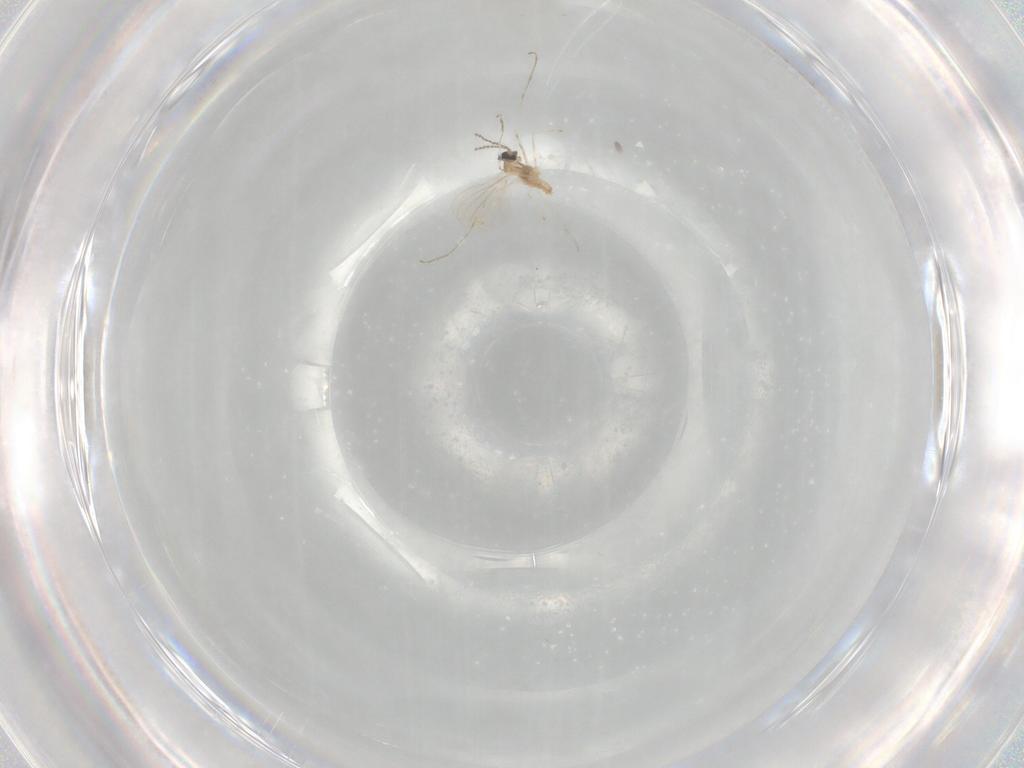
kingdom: Animalia
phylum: Arthropoda
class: Insecta
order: Diptera
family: Cecidomyiidae
